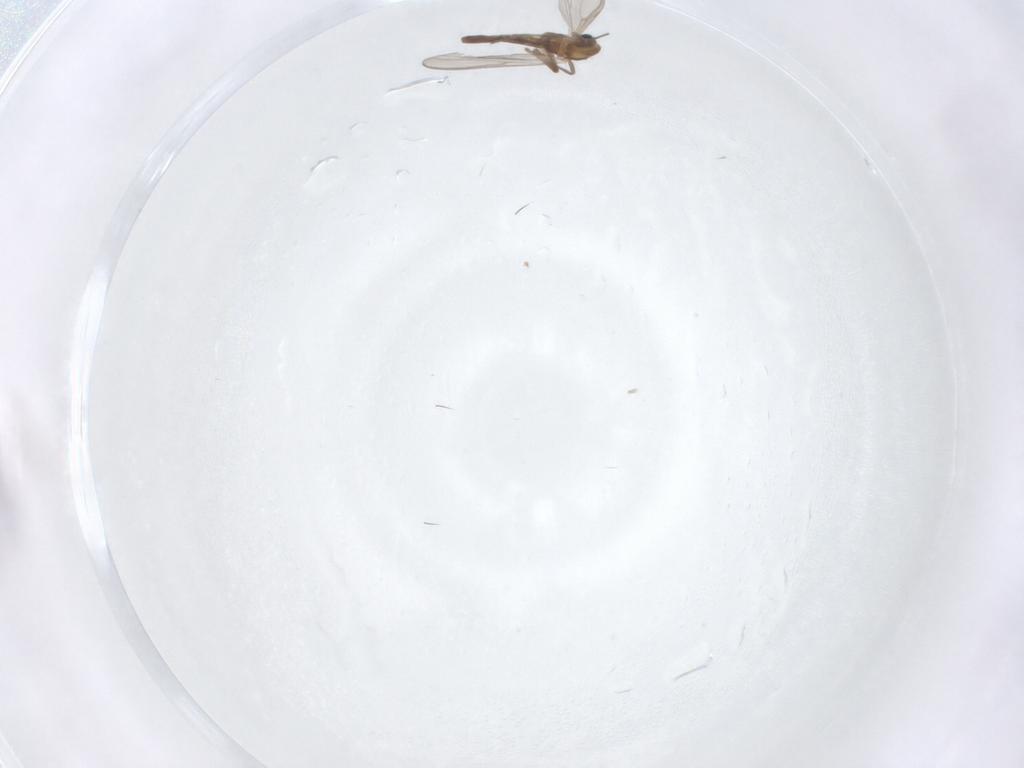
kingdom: Animalia
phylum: Arthropoda
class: Insecta
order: Diptera
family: Chironomidae
